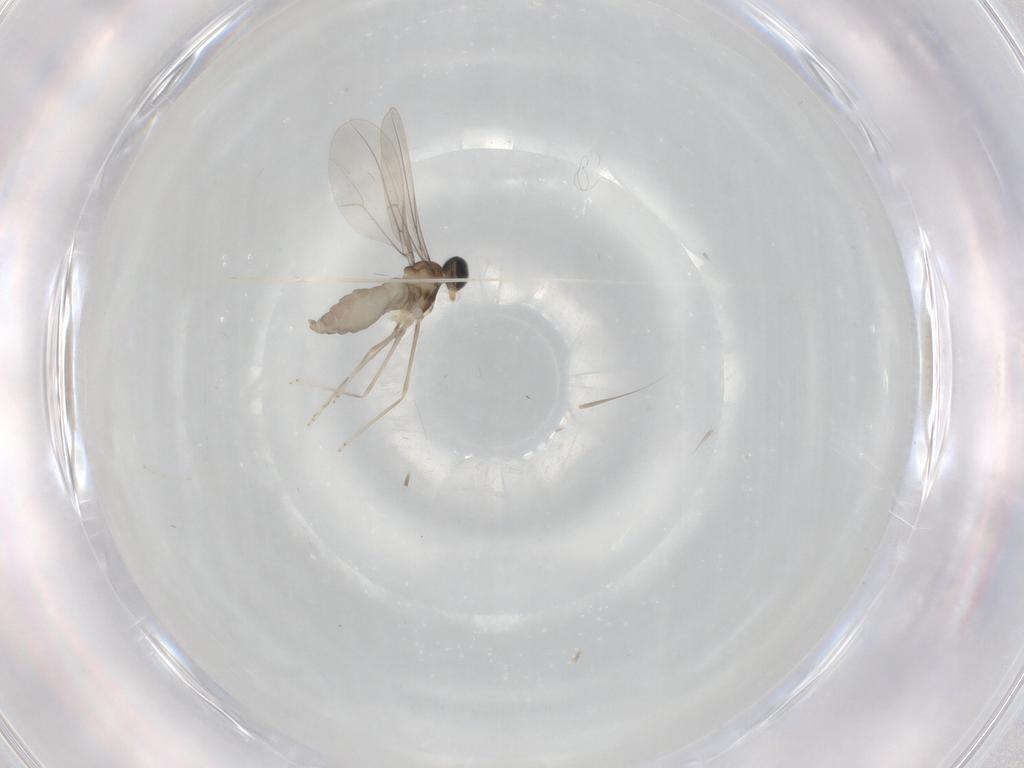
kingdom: Animalia
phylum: Arthropoda
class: Insecta
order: Diptera
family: Cecidomyiidae
